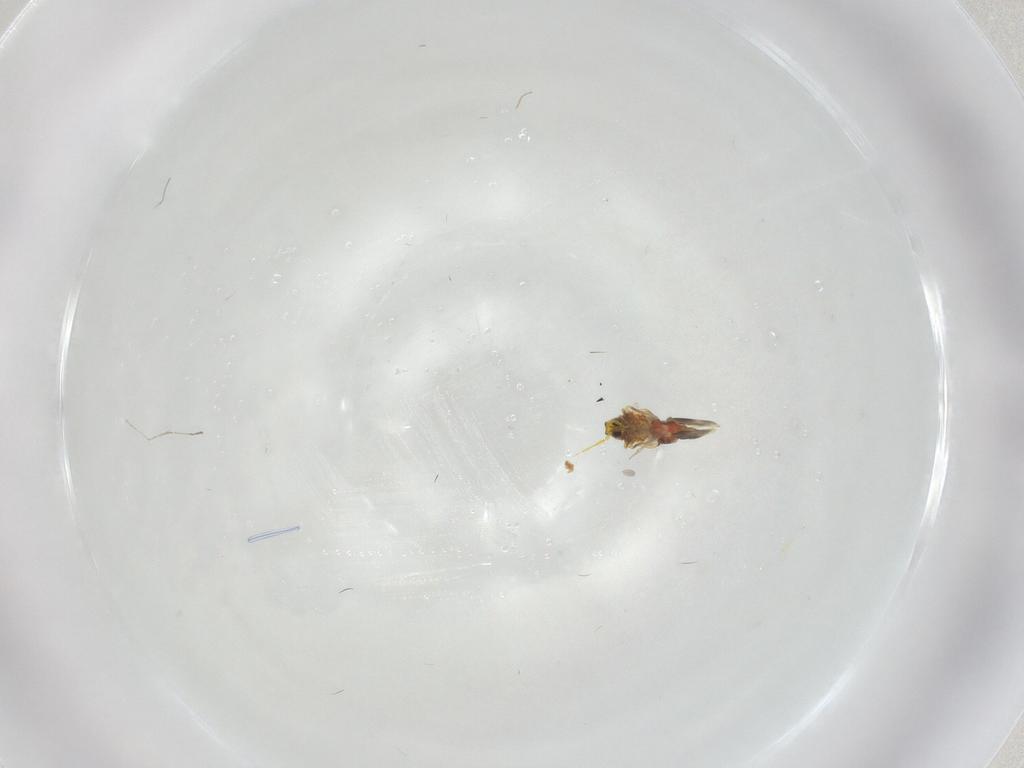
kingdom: Animalia
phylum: Arthropoda
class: Insecta
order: Hemiptera
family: Aleyrodidae
